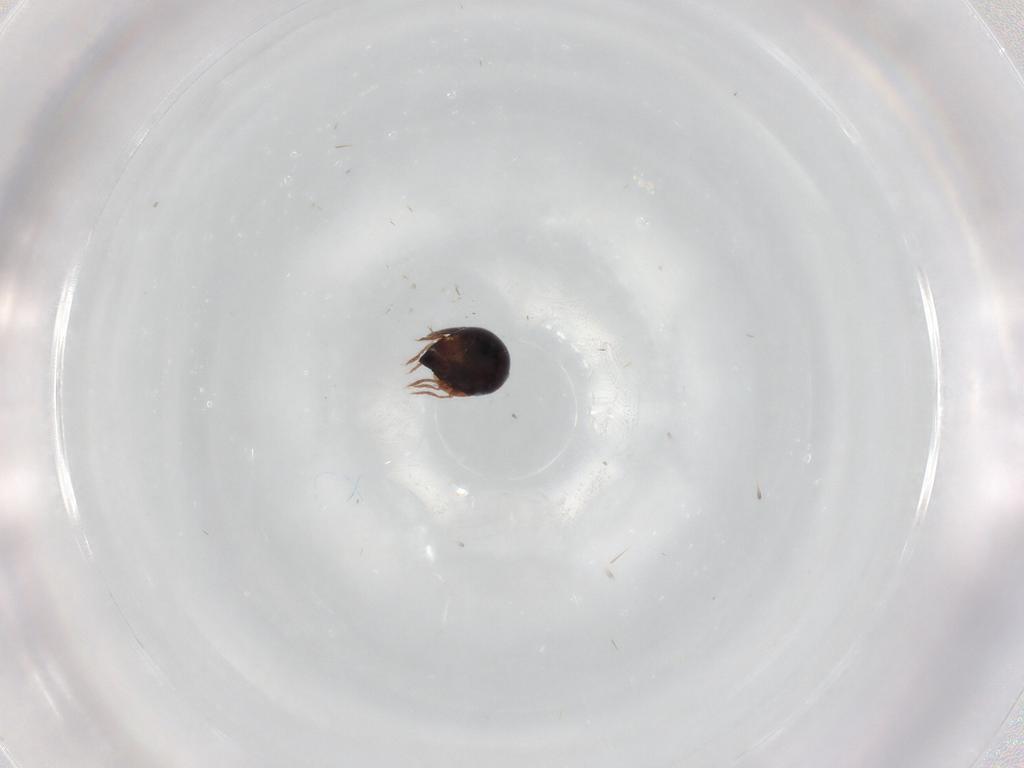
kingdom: Animalia
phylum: Arthropoda
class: Arachnida
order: Sarcoptiformes
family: Ceratozetidae
